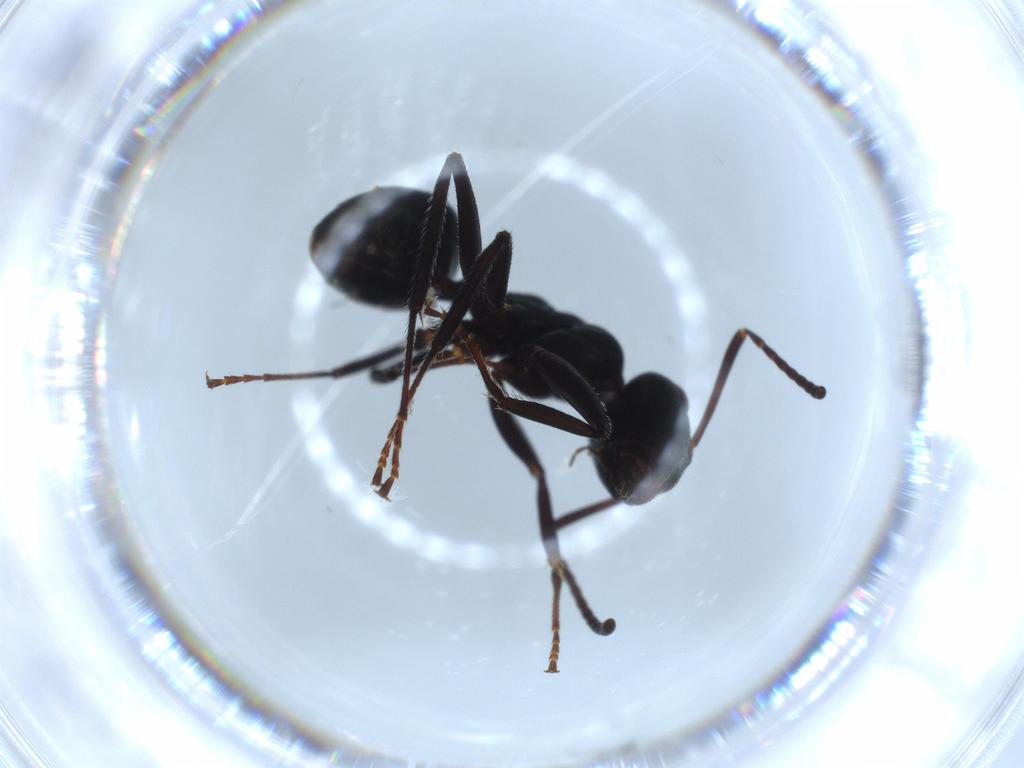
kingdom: Animalia
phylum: Arthropoda
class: Insecta
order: Hymenoptera
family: Formicidae
